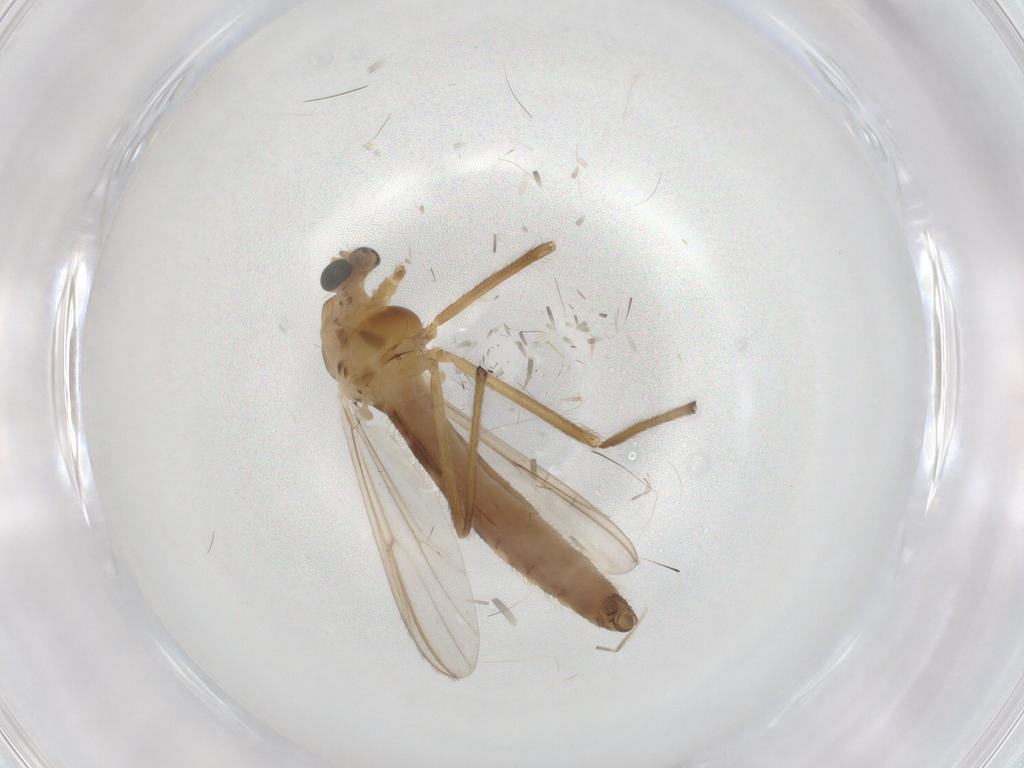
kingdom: Animalia
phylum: Arthropoda
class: Insecta
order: Diptera
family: Chironomidae
